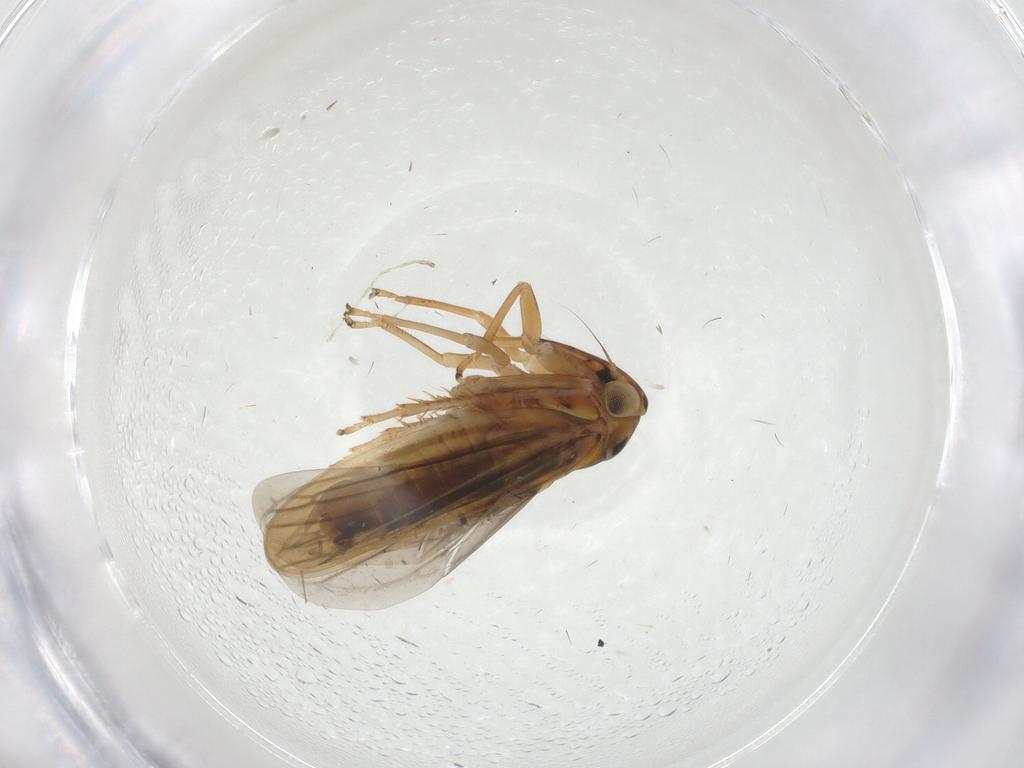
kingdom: Animalia
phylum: Arthropoda
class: Insecta
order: Hemiptera
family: Cicadellidae
